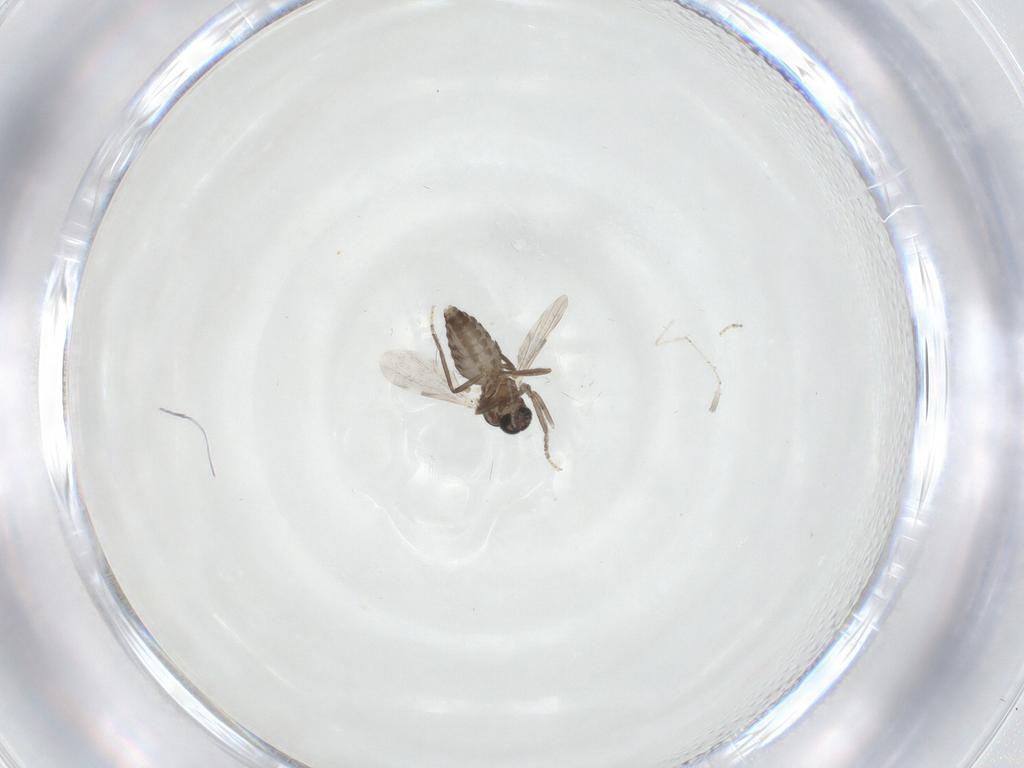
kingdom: Animalia
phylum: Arthropoda
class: Insecta
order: Diptera
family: Ceratopogonidae
